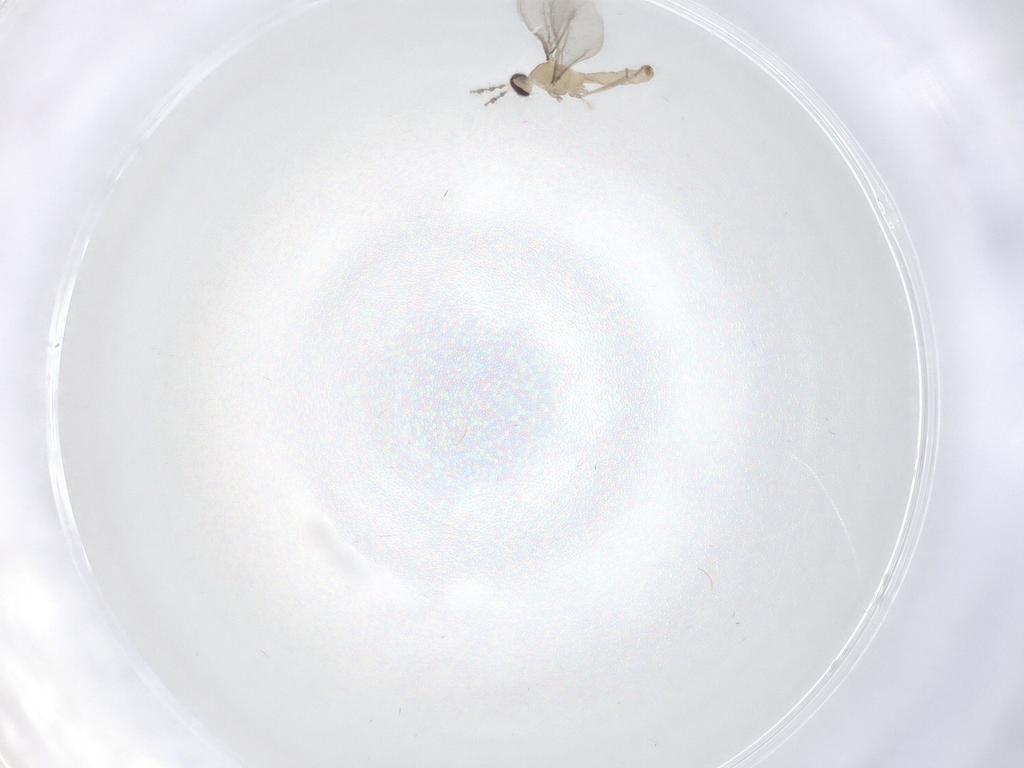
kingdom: Animalia
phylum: Arthropoda
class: Insecta
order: Diptera
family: Cecidomyiidae
